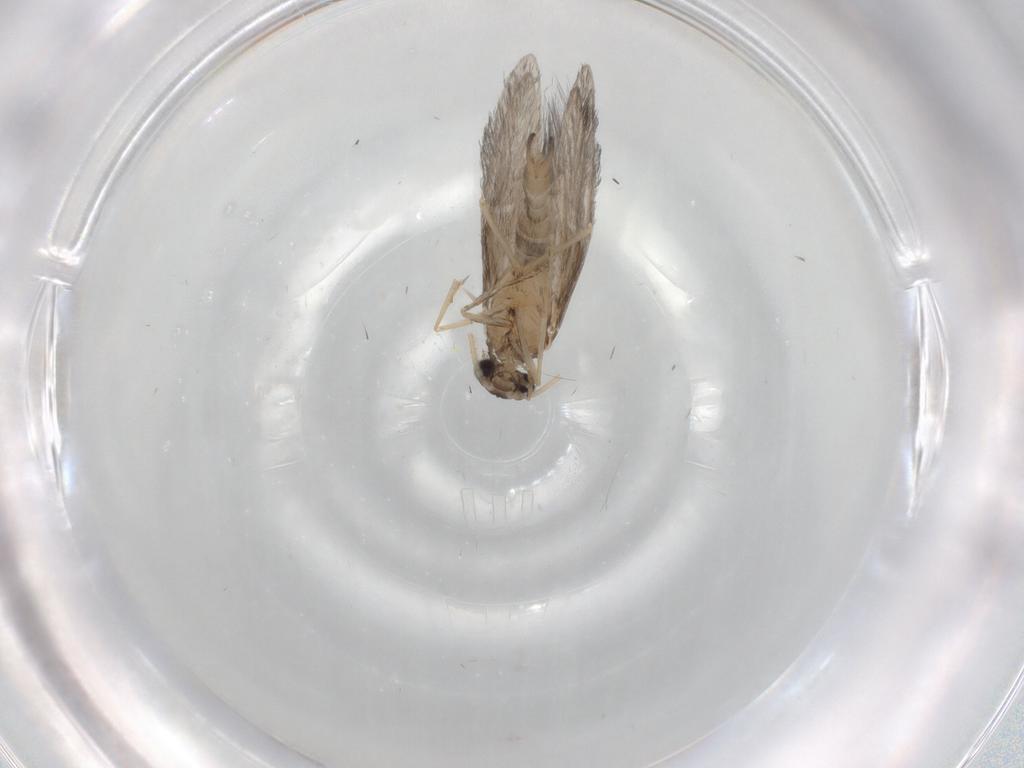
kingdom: Animalia
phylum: Arthropoda
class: Insecta
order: Trichoptera
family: Hydroptilidae
